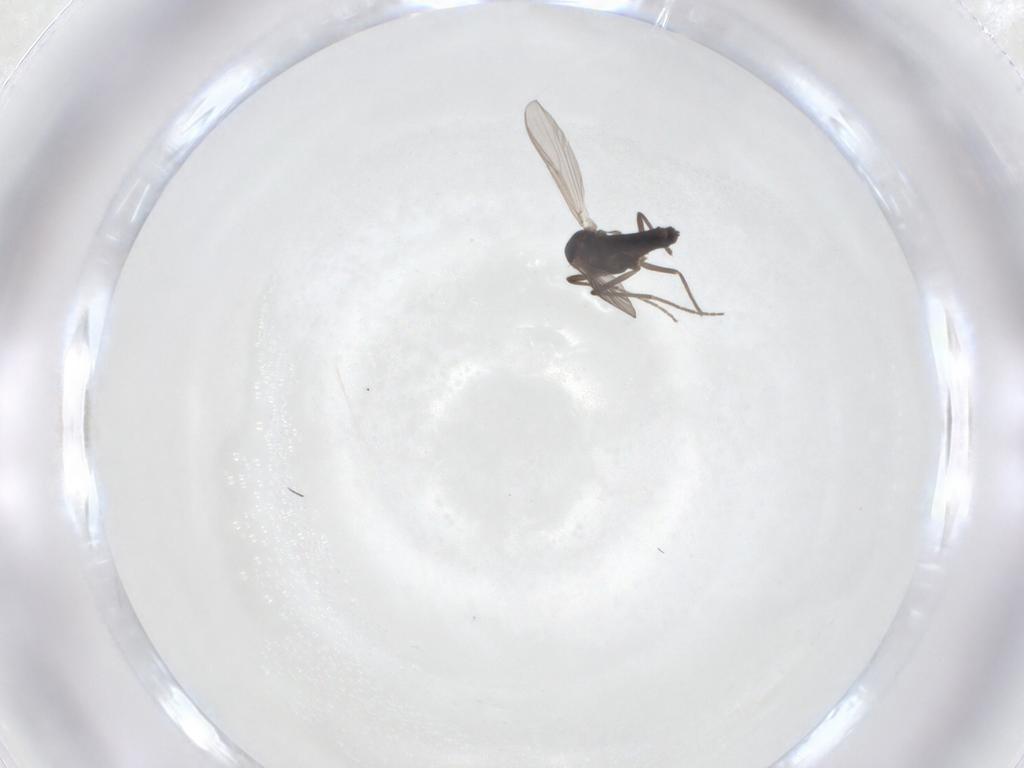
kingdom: Animalia
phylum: Arthropoda
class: Insecta
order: Diptera
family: Chironomidae
